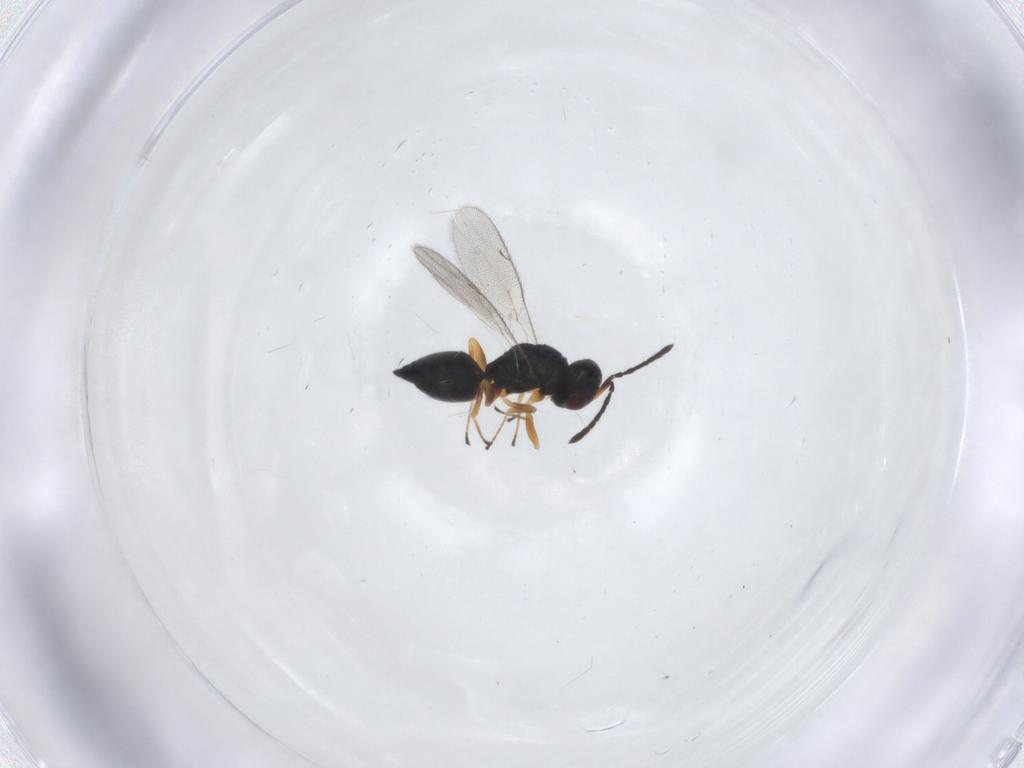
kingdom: Animalia
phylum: Arthropoda
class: Insecta
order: Hymenoptera
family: Pteromalidae
